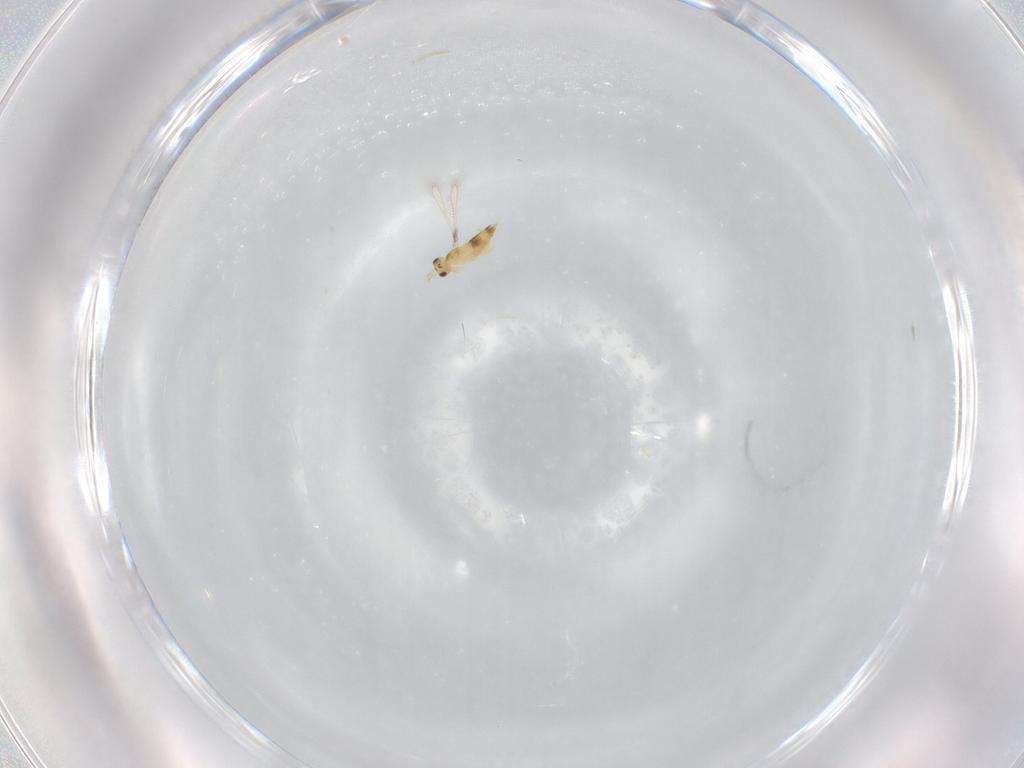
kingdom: Animalia
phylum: Arthropoda
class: Insecta
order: Hymenoptera
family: Mymaridae
